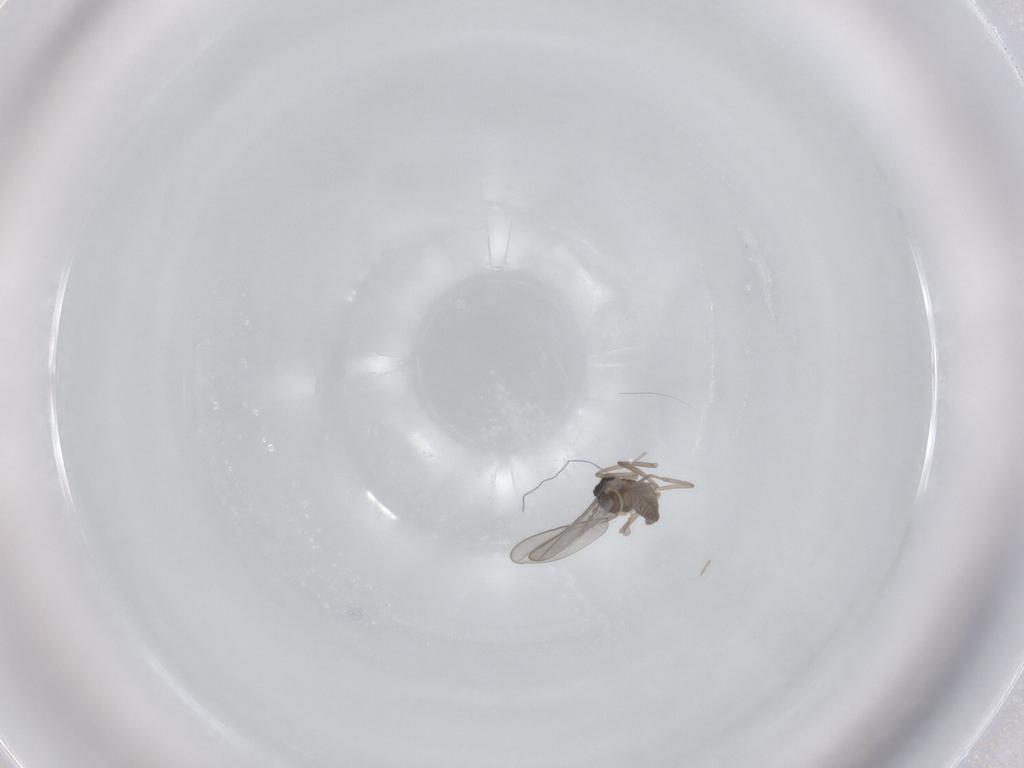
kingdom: Animalia
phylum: Arthropoda
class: Insecta
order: Diptera
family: Cecidomyiidae
